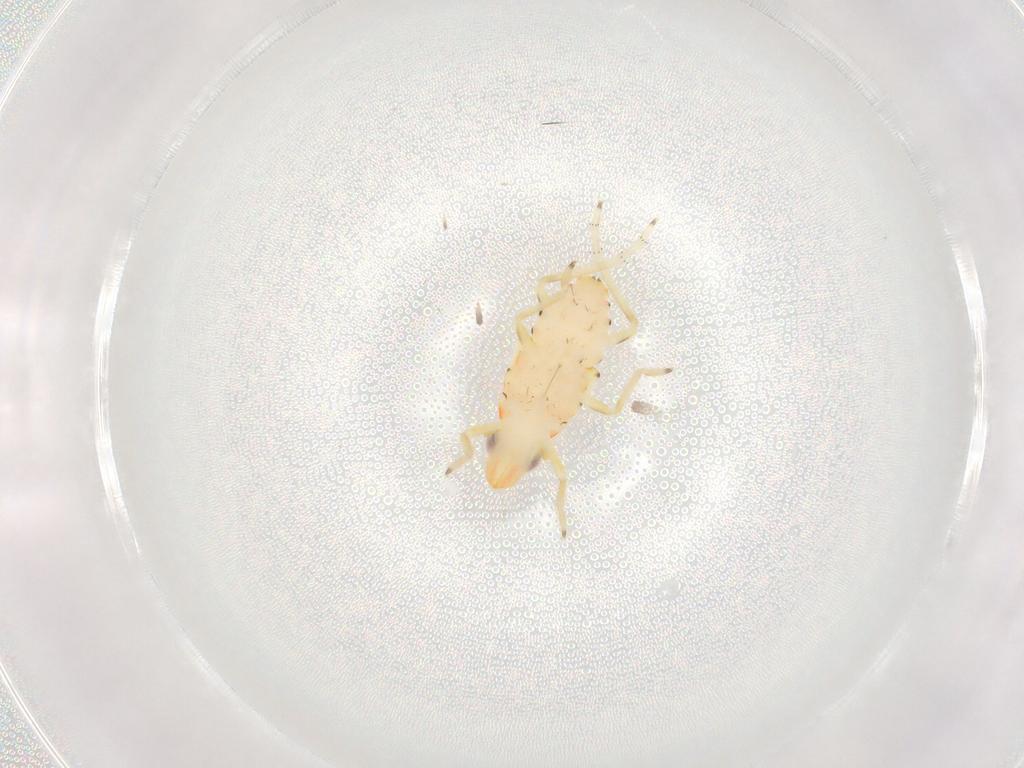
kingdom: Animalia
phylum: Arthropoda
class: Insecta
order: Hemiptera
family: Tropiduchidae
